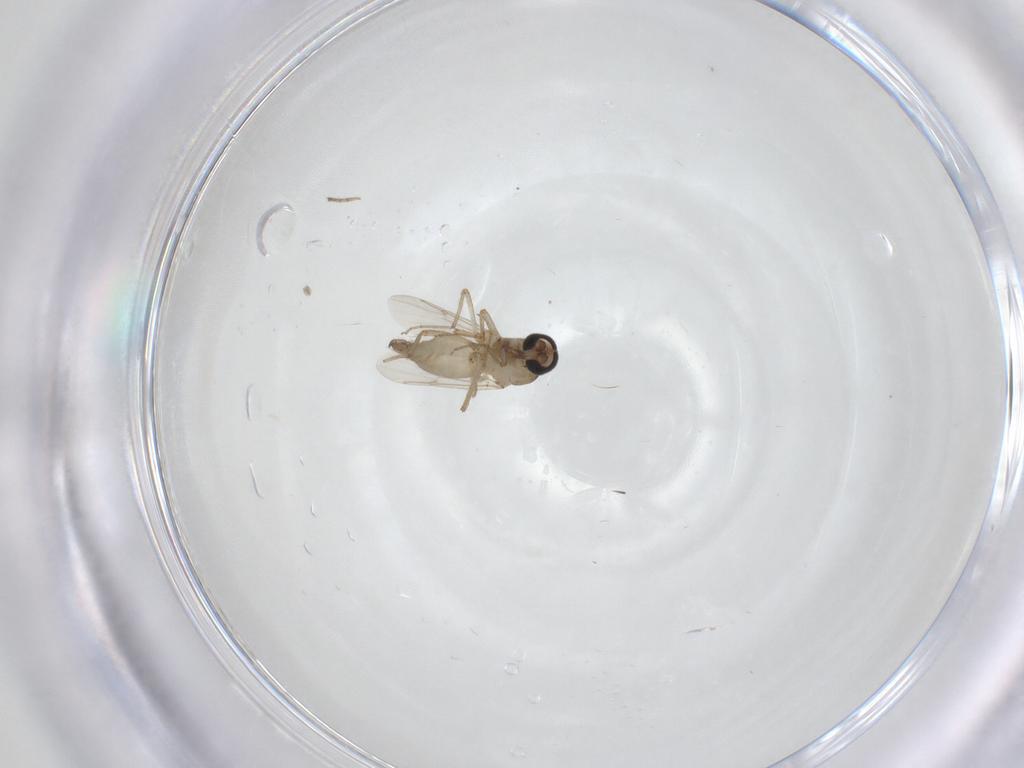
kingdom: Animalia
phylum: Arthropoda
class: Insecta
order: Diptera
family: Ceratopogonidae
